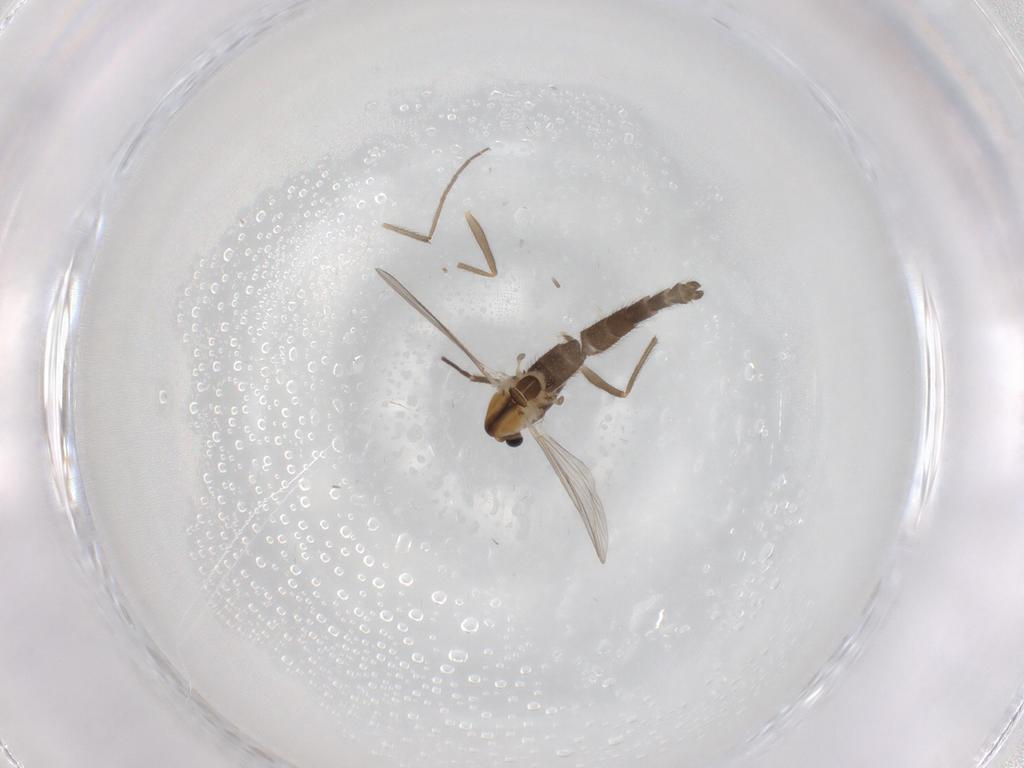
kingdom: Animalia
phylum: Arthropoda
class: Insecta
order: Diptera
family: Chironomidae
